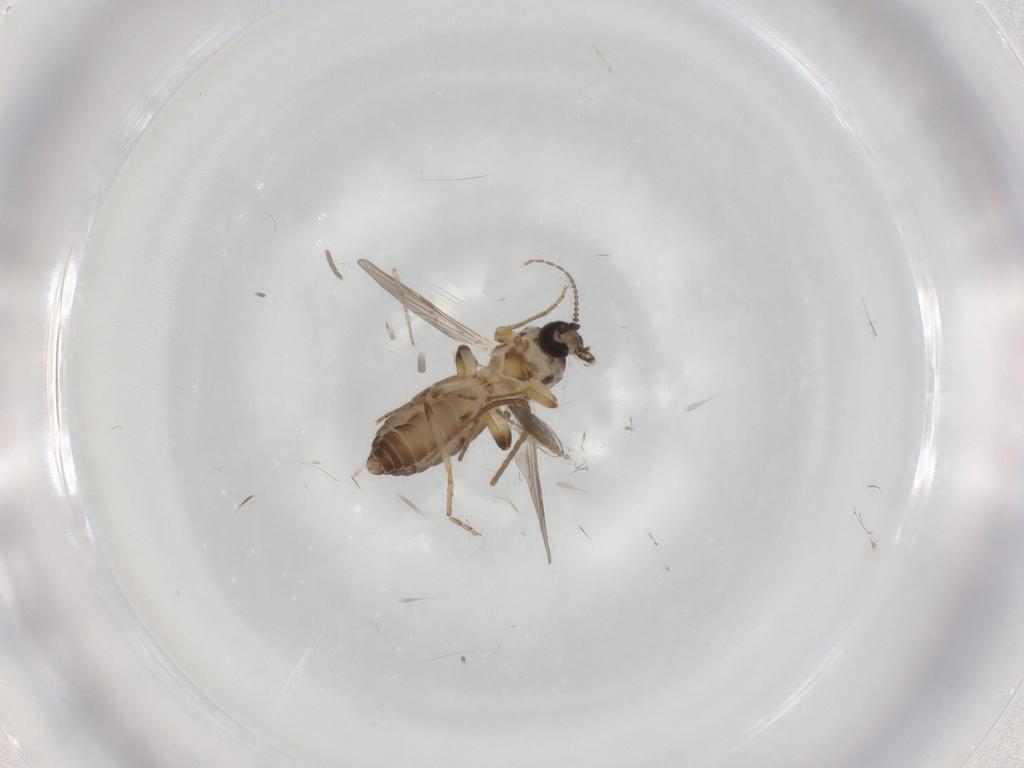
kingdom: Animalia
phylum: Arthropoda
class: Insecta
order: Diptera
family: Ceratopogonidae
